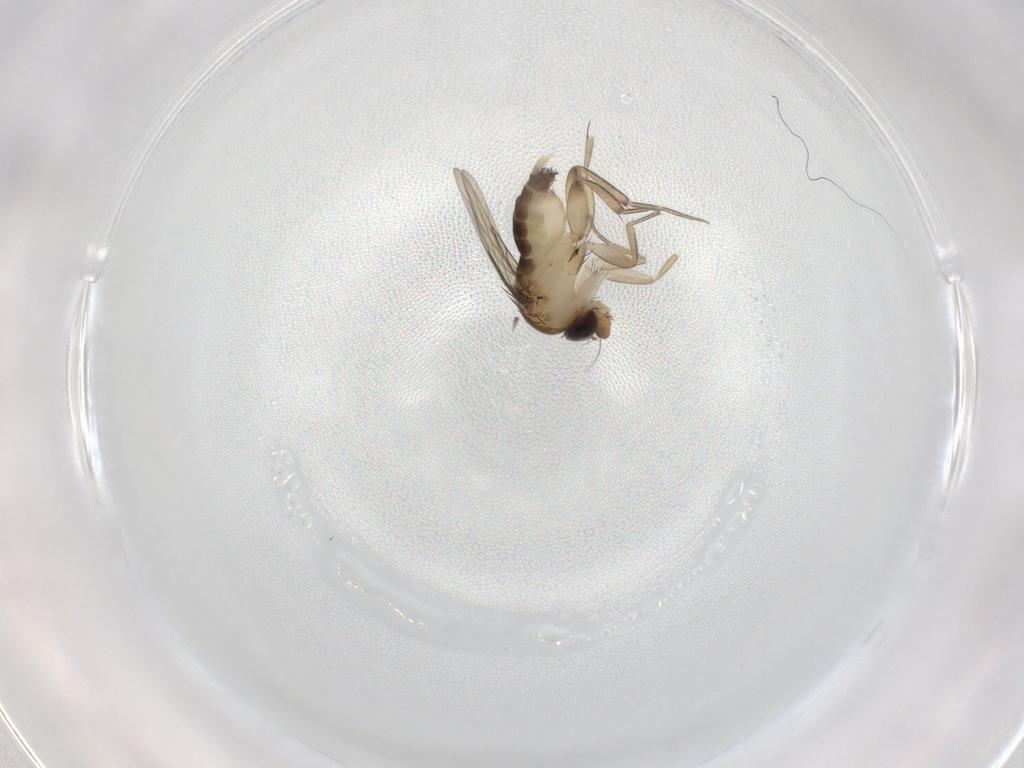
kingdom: Animalia
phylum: Arthropoda
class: Insecta
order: Diptera
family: Phoridae
